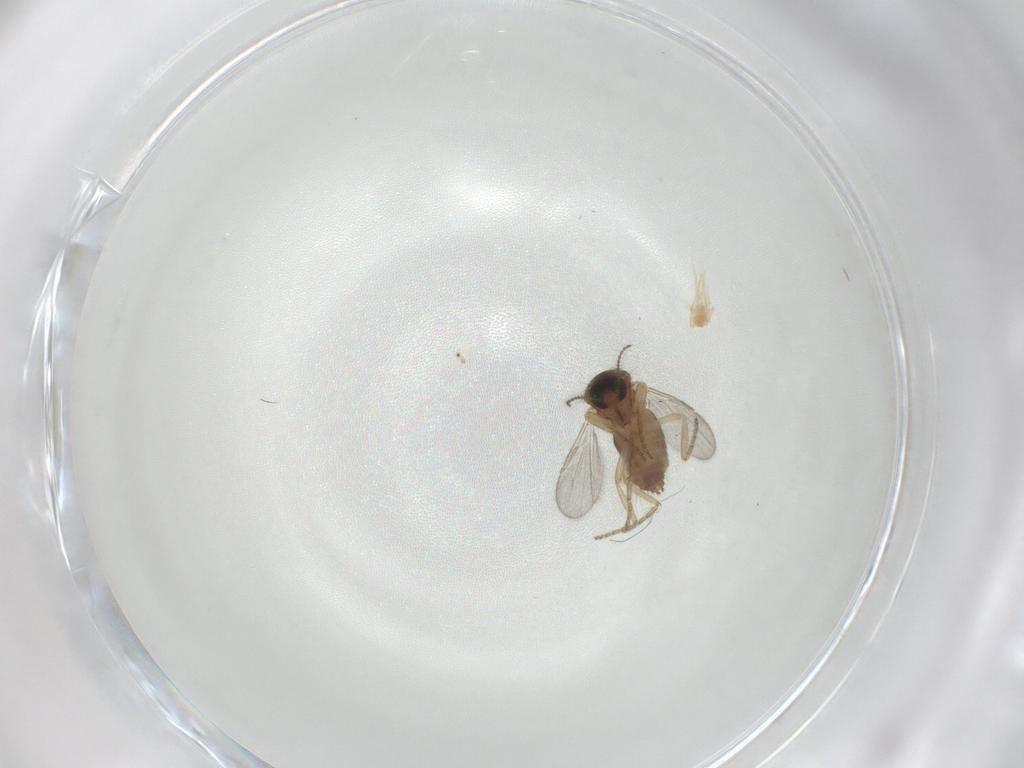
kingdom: Animalia
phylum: Arthropoda
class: Insecta
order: Diptera
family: Ceratopogonidae
